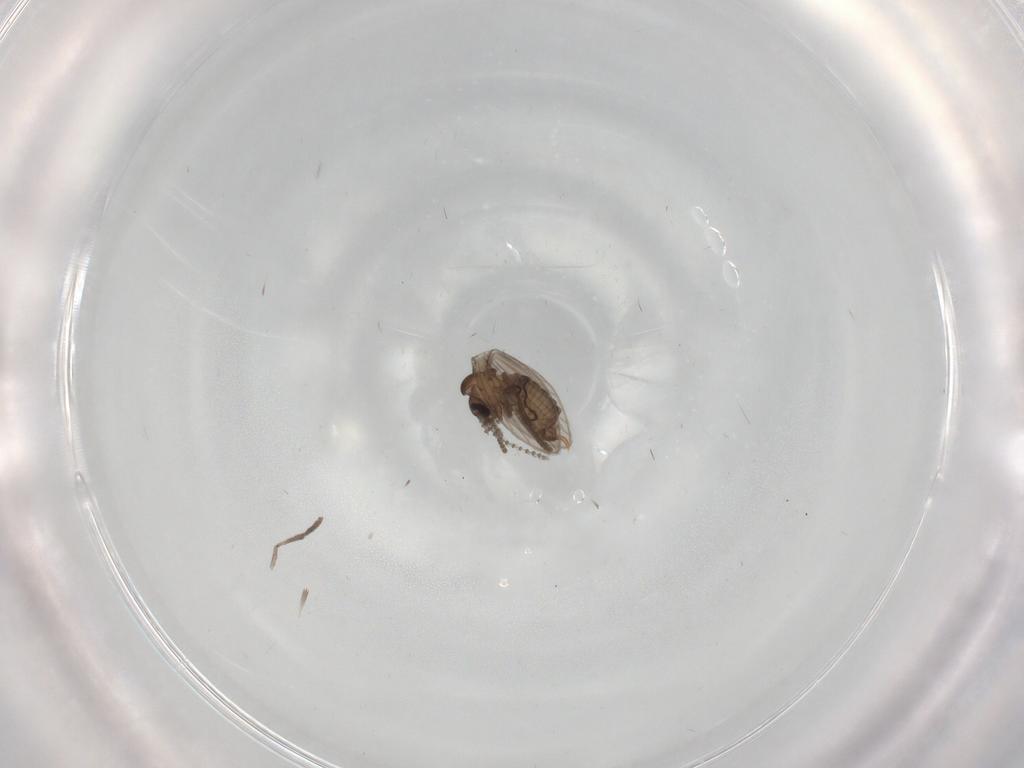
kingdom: Animalia
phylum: Arthropoda
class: Insecta
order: Diptera
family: Psychodidae
